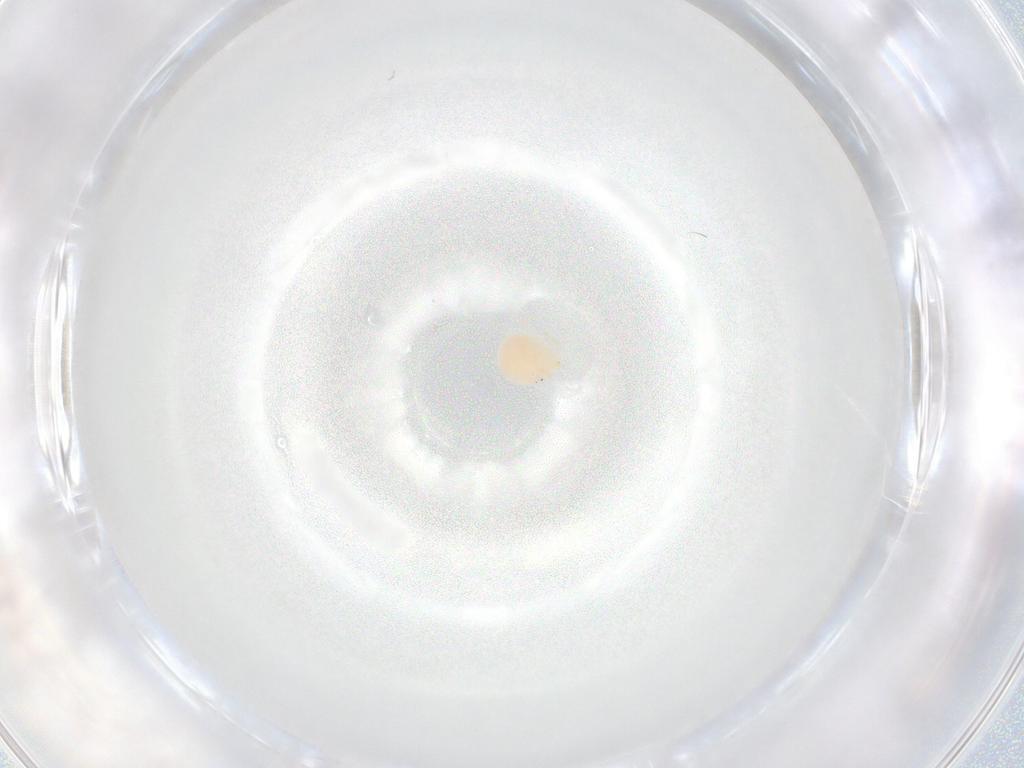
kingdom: Animalia
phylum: Arthropoda
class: Arachnida
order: Trombidiformes
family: Hydryphantidae
